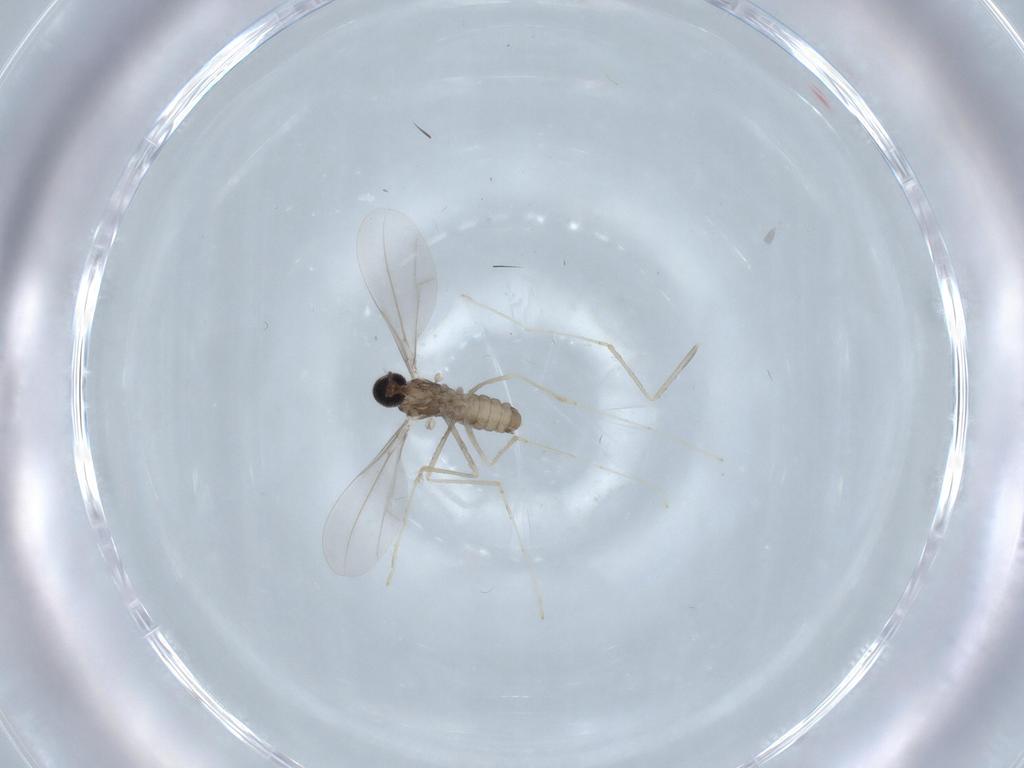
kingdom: Animalia
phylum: Arthropoda
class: Insecta
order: Diptera
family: Cecidomyiidae
